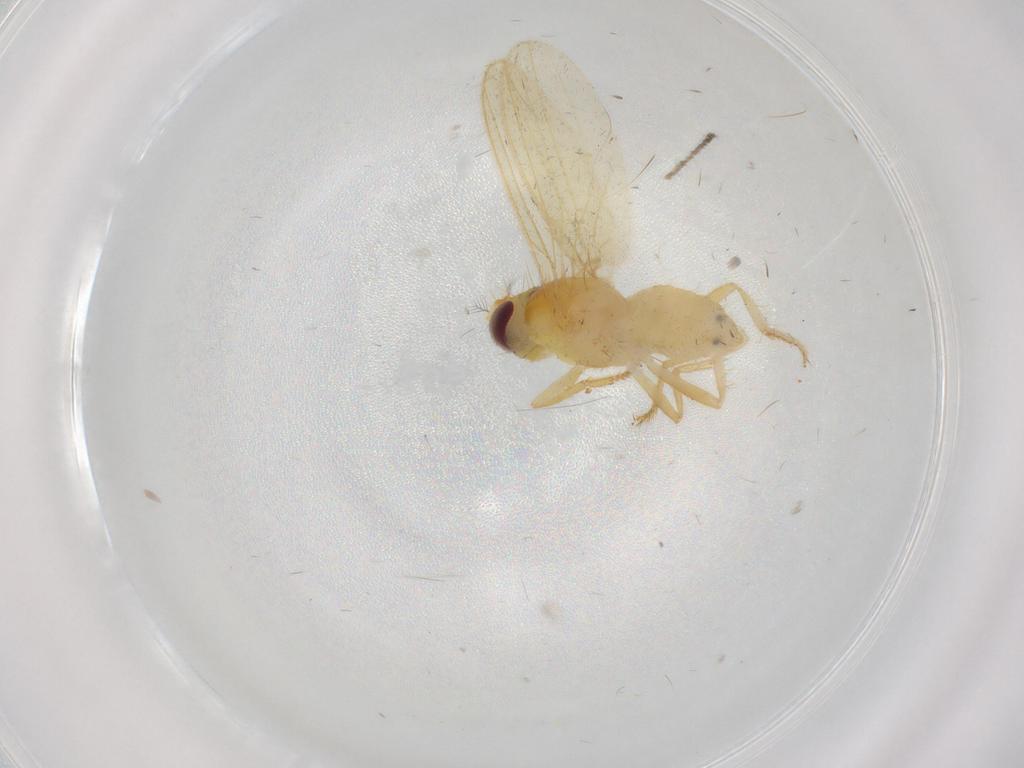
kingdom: Animalia
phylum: Arthropoda
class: Insecta
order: Diptera
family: Periscelididae
